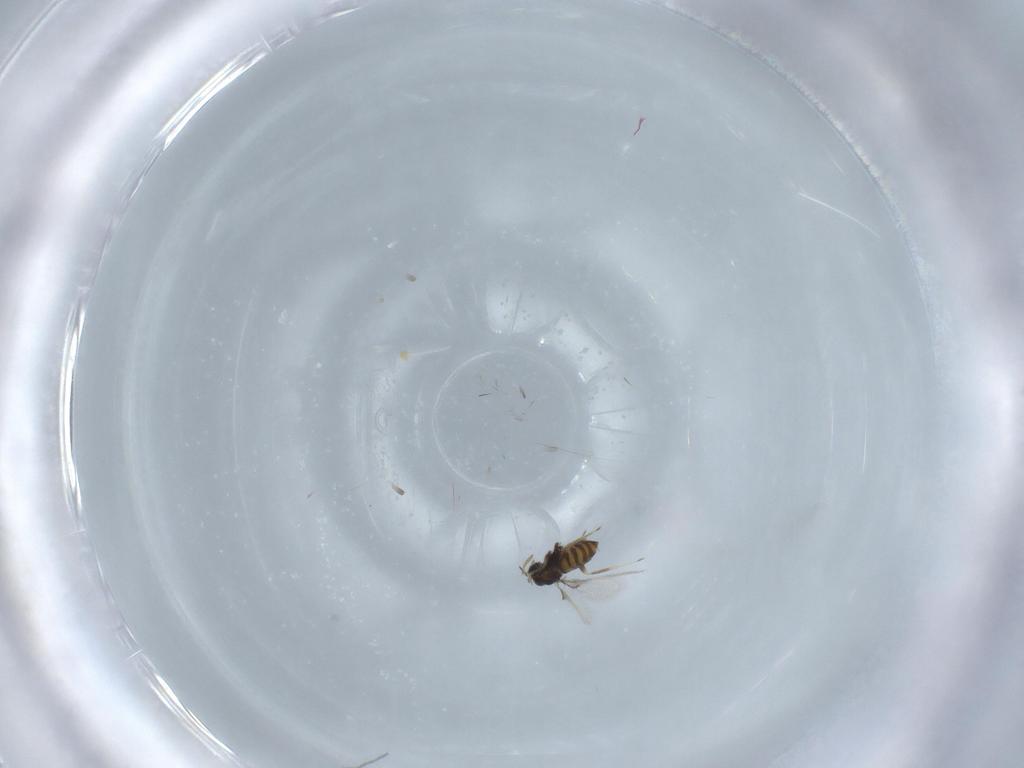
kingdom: Animalia
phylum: Arthropoda
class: Insecta
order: Hymenoptera
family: Trichogrammatidae
